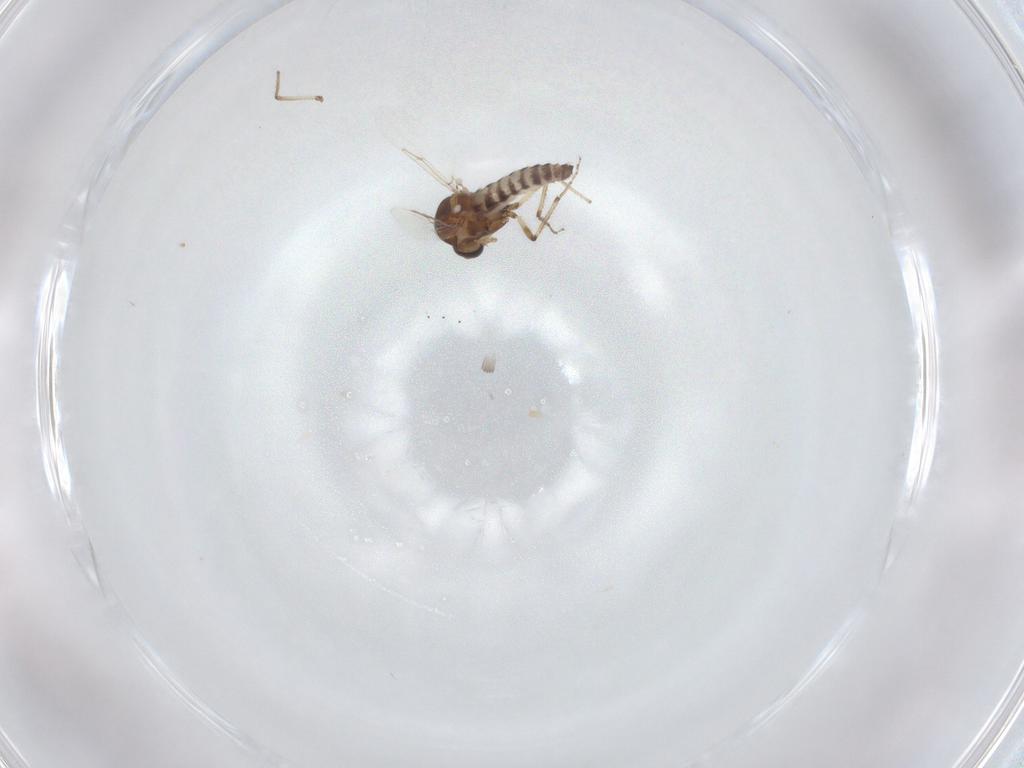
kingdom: Animalia
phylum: Arthropoda
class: Insecta
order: Diptera
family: Ceratopogonidae
